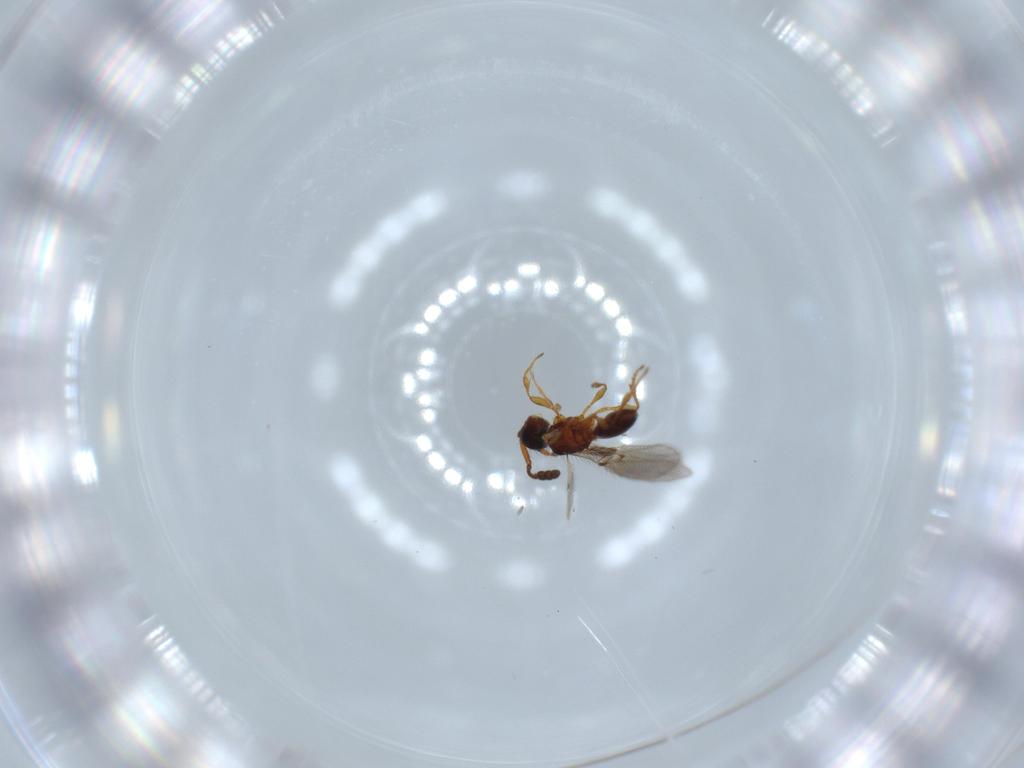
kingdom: Animalia
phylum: Arthropoda
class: Insecta
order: Hymenoptera
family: Diapriidae
